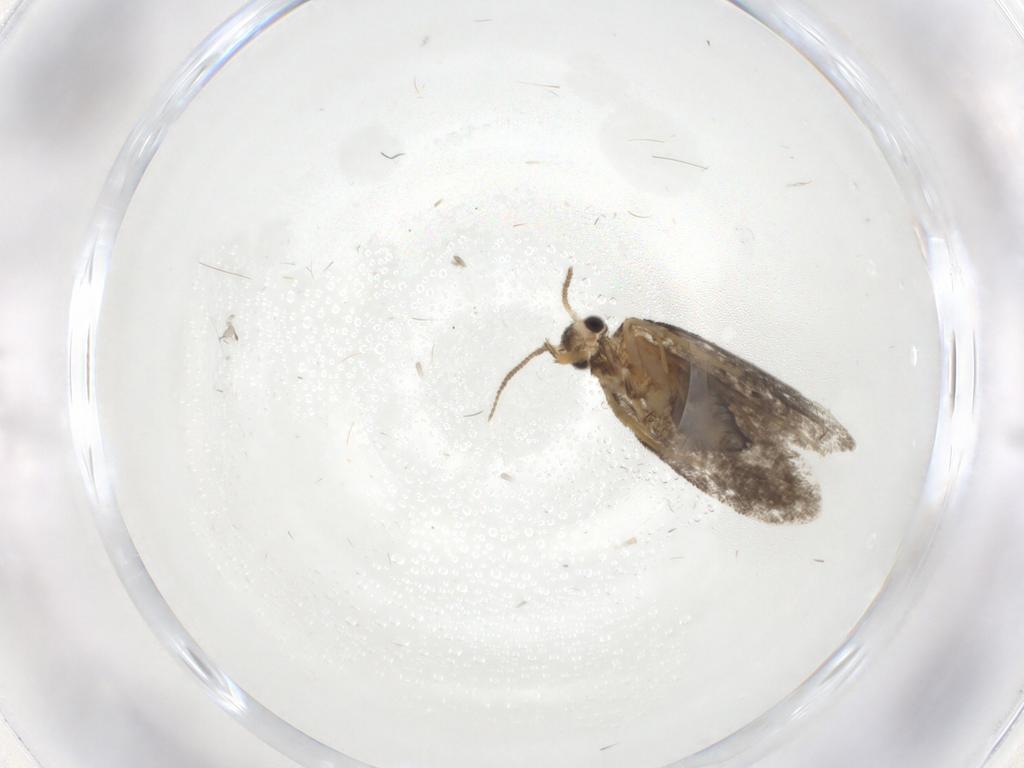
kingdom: Animalia
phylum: Arthropoda
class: Insecta
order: Lepidoptera
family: Psychidae
